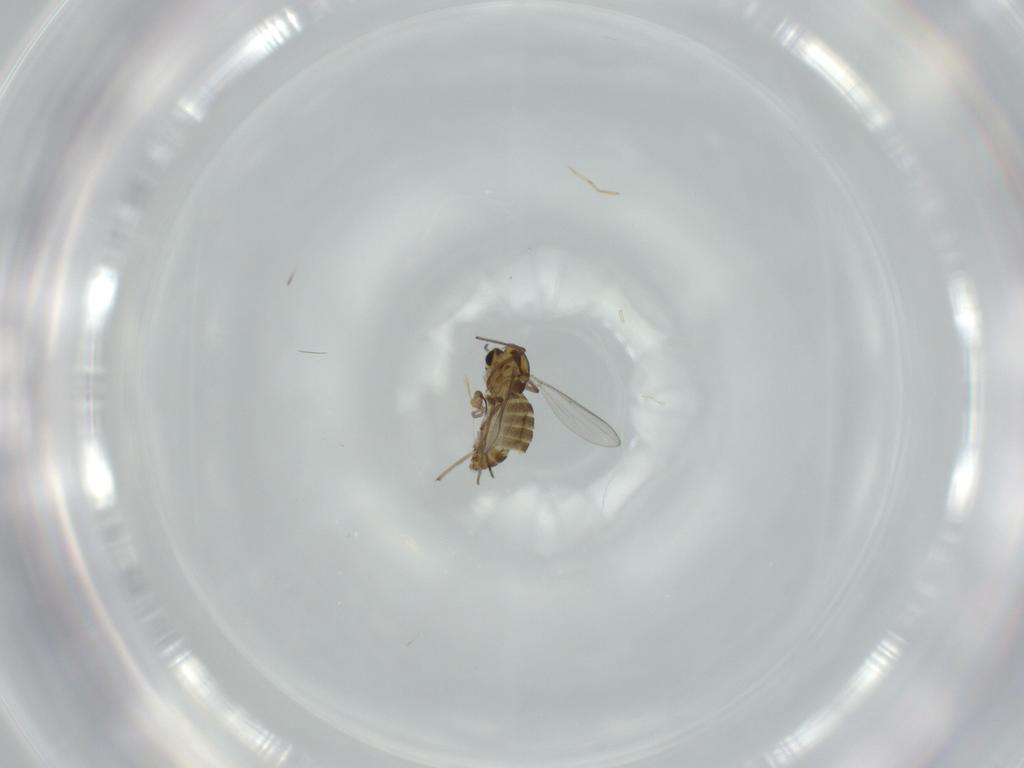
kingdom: Animalia
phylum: Arthropoda
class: Insecta
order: Diptera
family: Chironomidae
